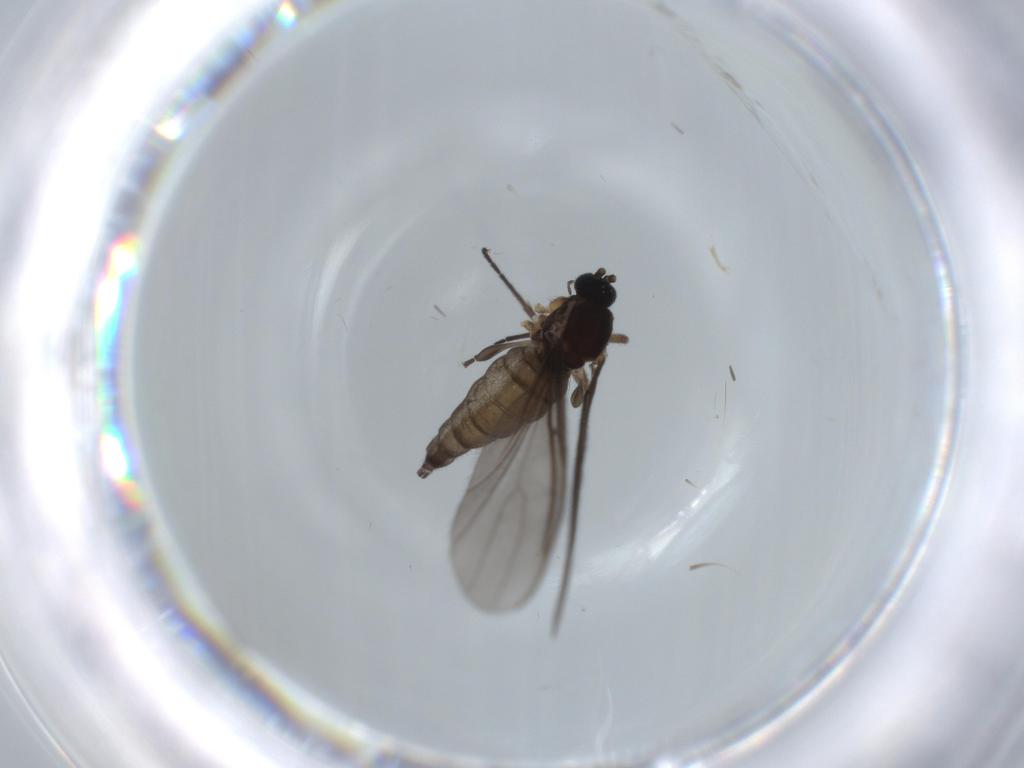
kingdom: Animalia
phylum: Arthropoda
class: Insecta
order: Diptera
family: Sciaridae
